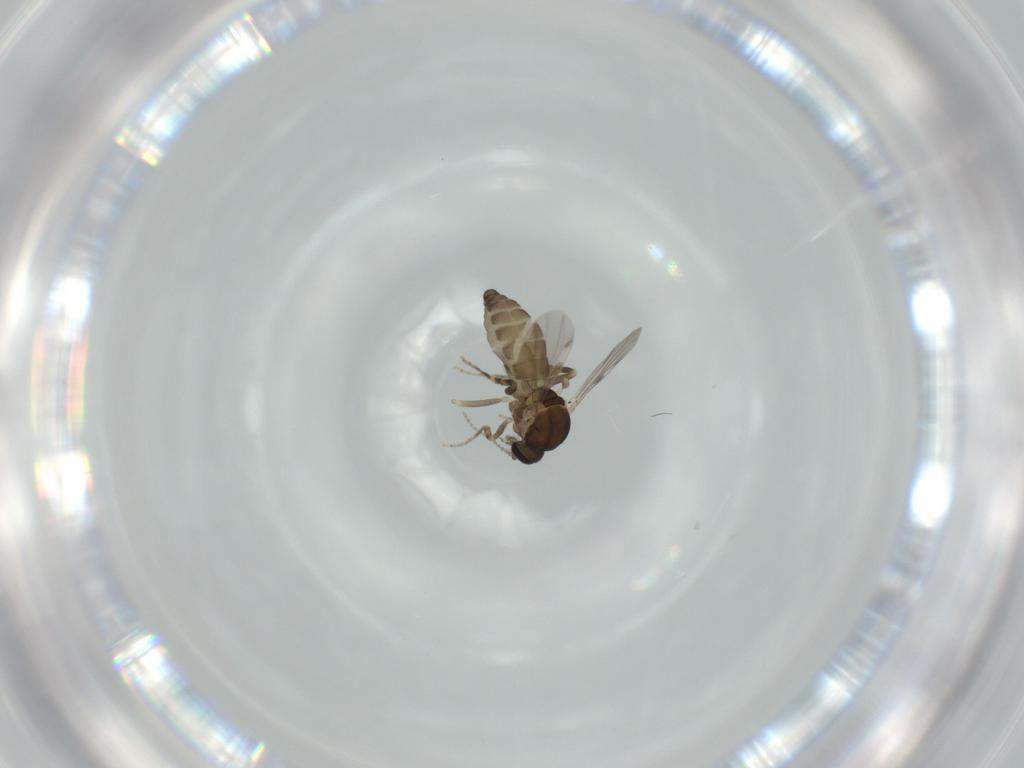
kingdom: Animalia
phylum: Arthropoda
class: Insecta
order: Diptera
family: Ceratopogonidae
